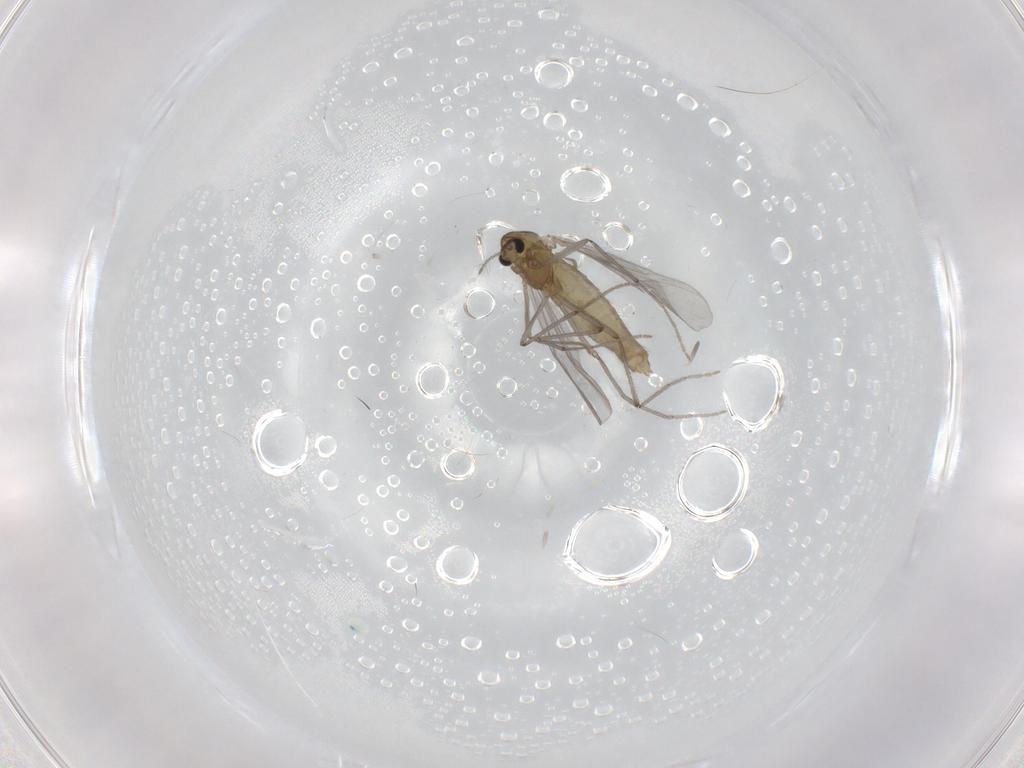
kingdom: Animalia
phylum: Arthropoda
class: Insecta
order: Diptera
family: Chironomidae
